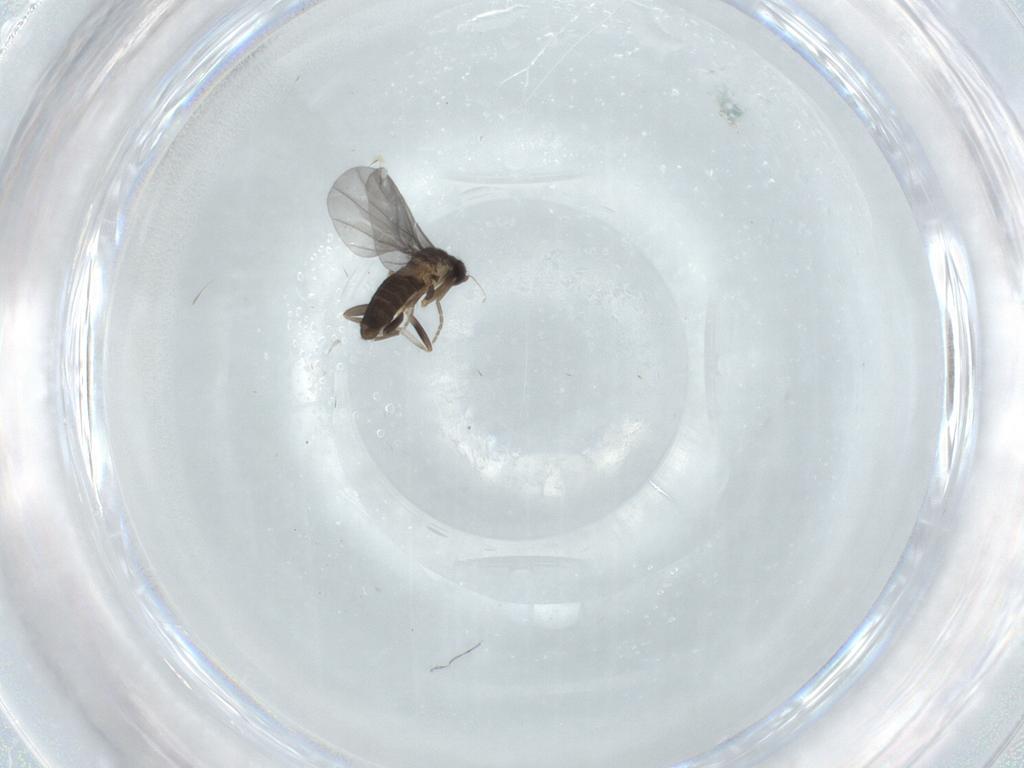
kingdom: Animalia
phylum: Arthropoda
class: Insecta
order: Diptera
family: Phoridae
